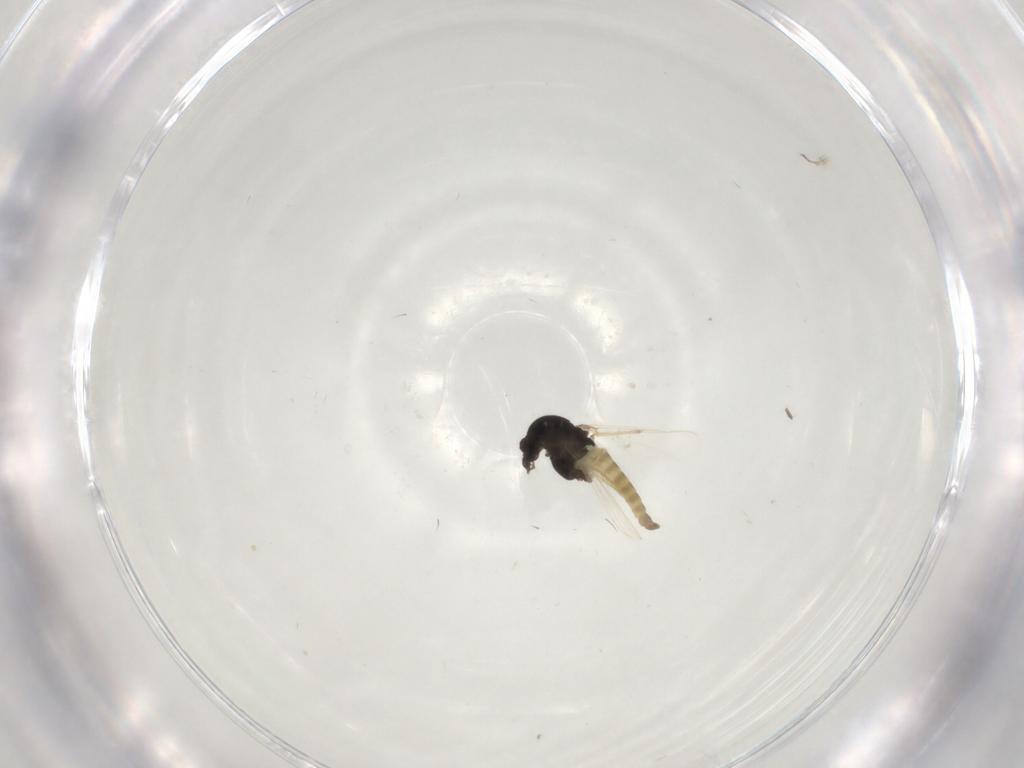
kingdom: Animalia
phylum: Arthropoda
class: Insecta
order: Diptera
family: Chironomidae
